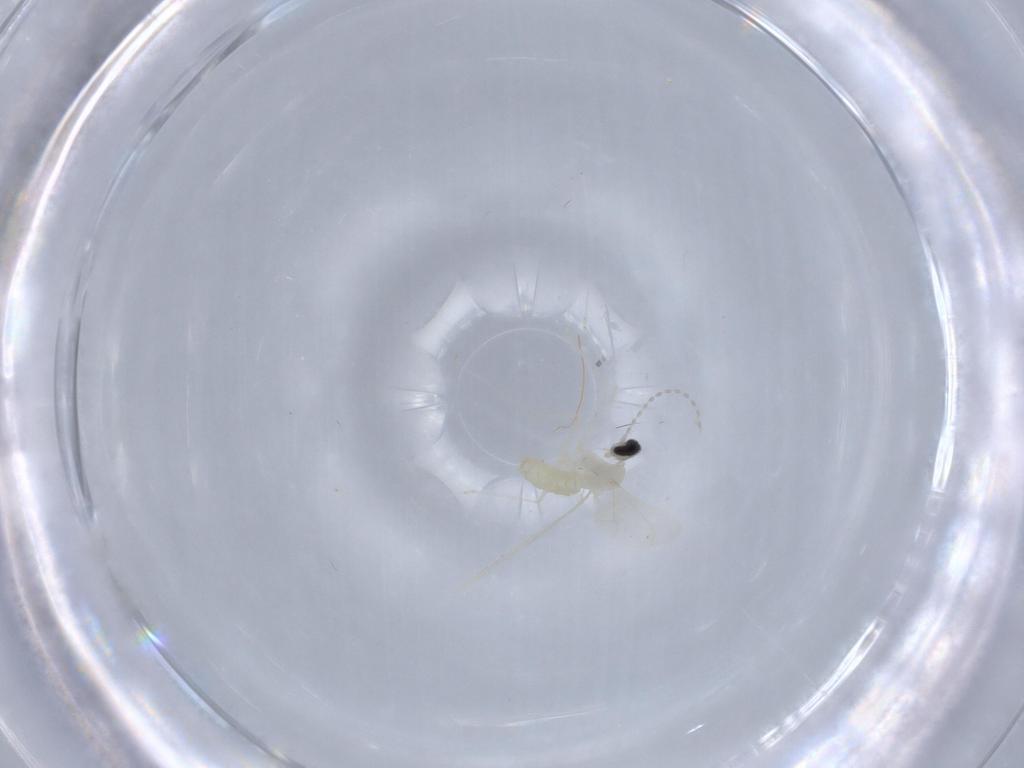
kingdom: Animalia
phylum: Arthropoda
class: Insecta
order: Diptera
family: Cecidomyiidae
